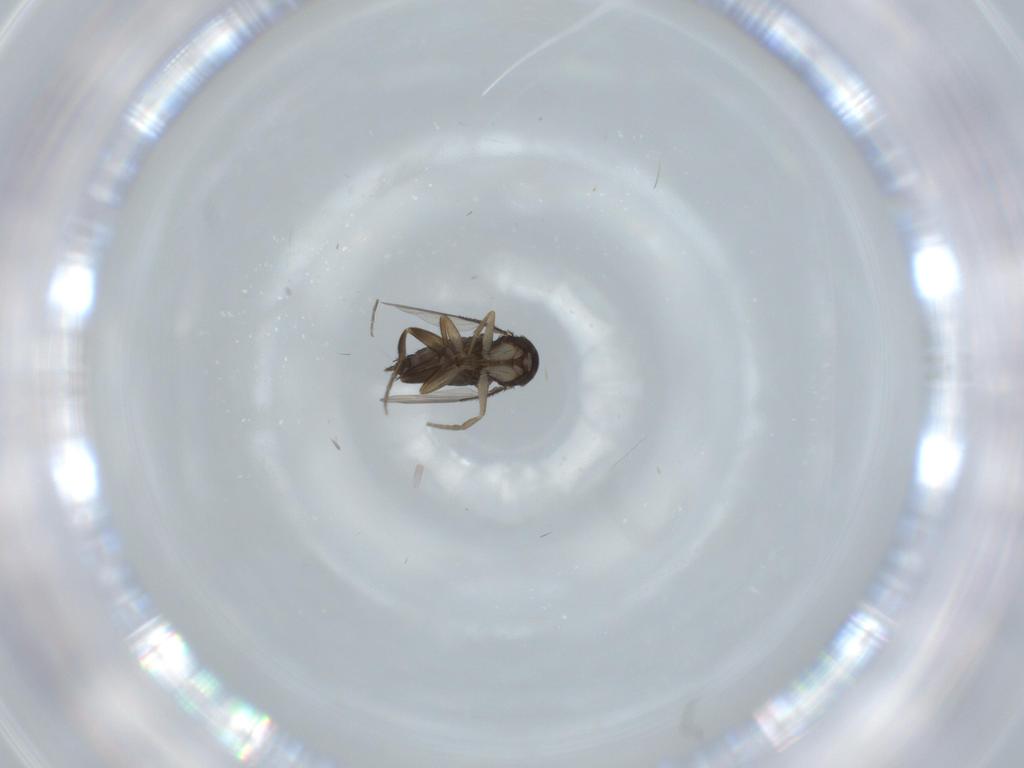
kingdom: Animalia
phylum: Arthropoda
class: Insecta
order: Diptera
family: Phoridae
